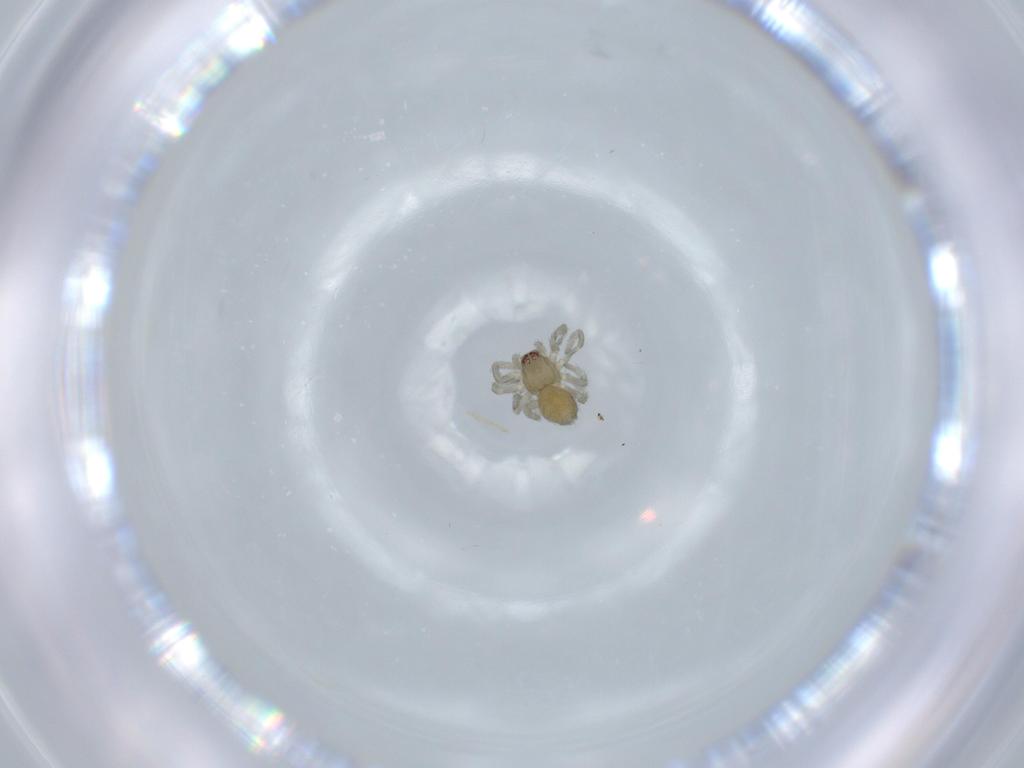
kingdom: Animalia
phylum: Arthropoda
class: Arachnida
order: Araneae
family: Dictynidae
